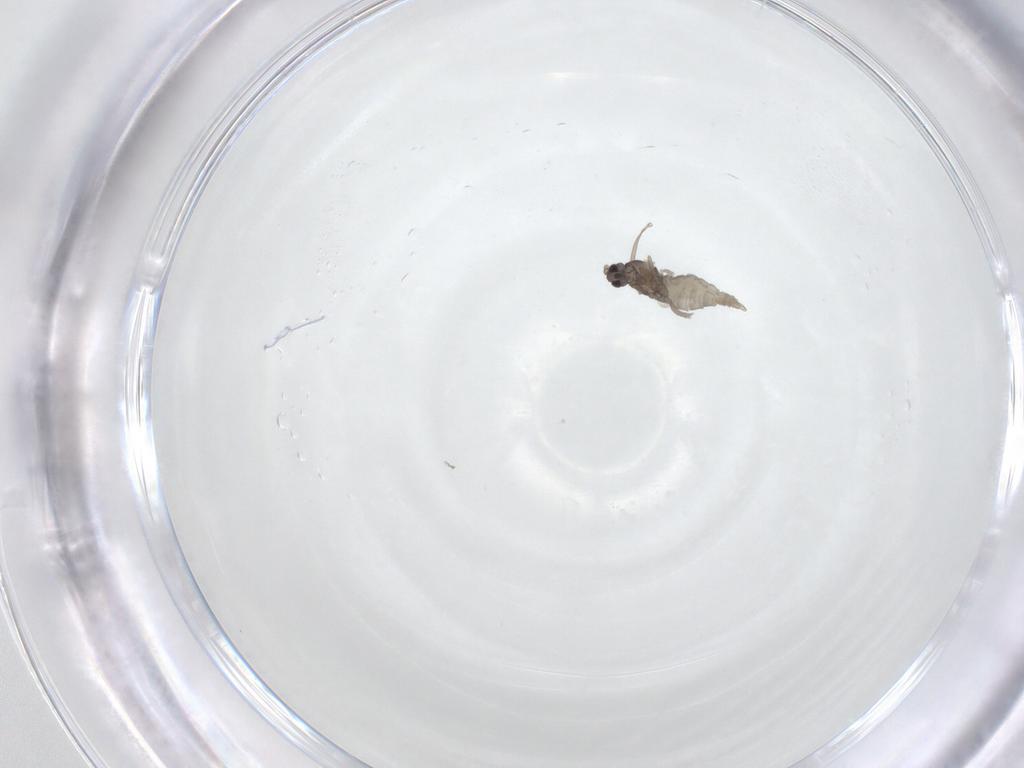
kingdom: Animalia
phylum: Arthropoda
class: Insecta
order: Diptera
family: Cecidomyiidae
